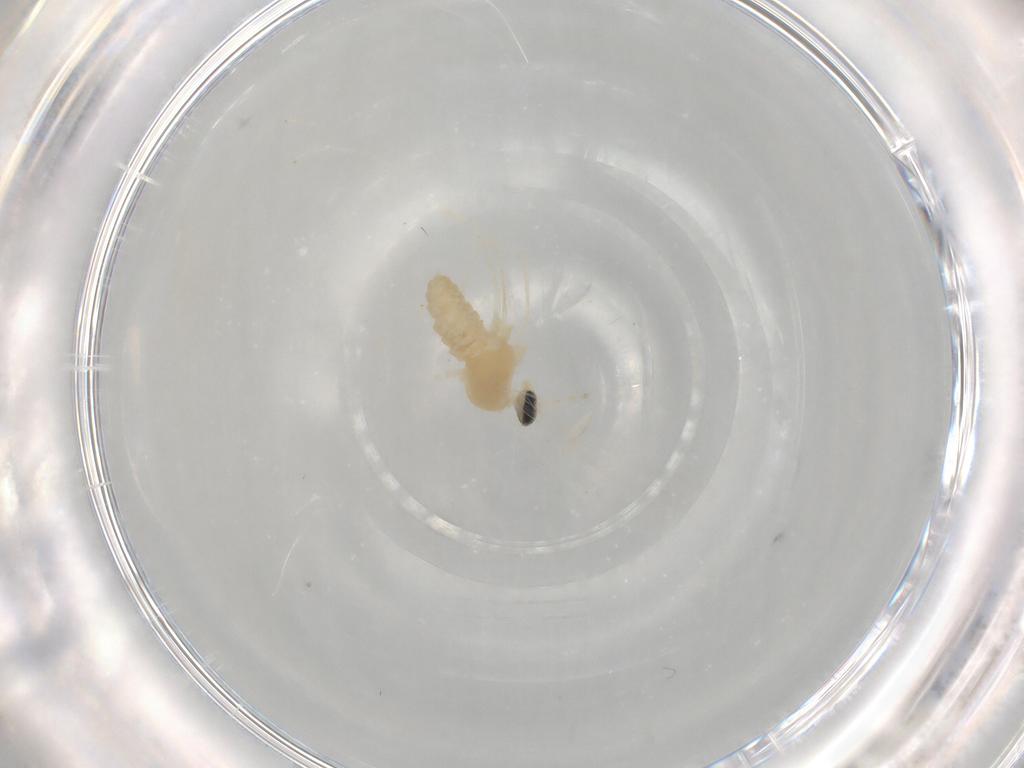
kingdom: Animalia
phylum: Arthropoda
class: Insecta
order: Diptera
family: Cecidomyiidae
